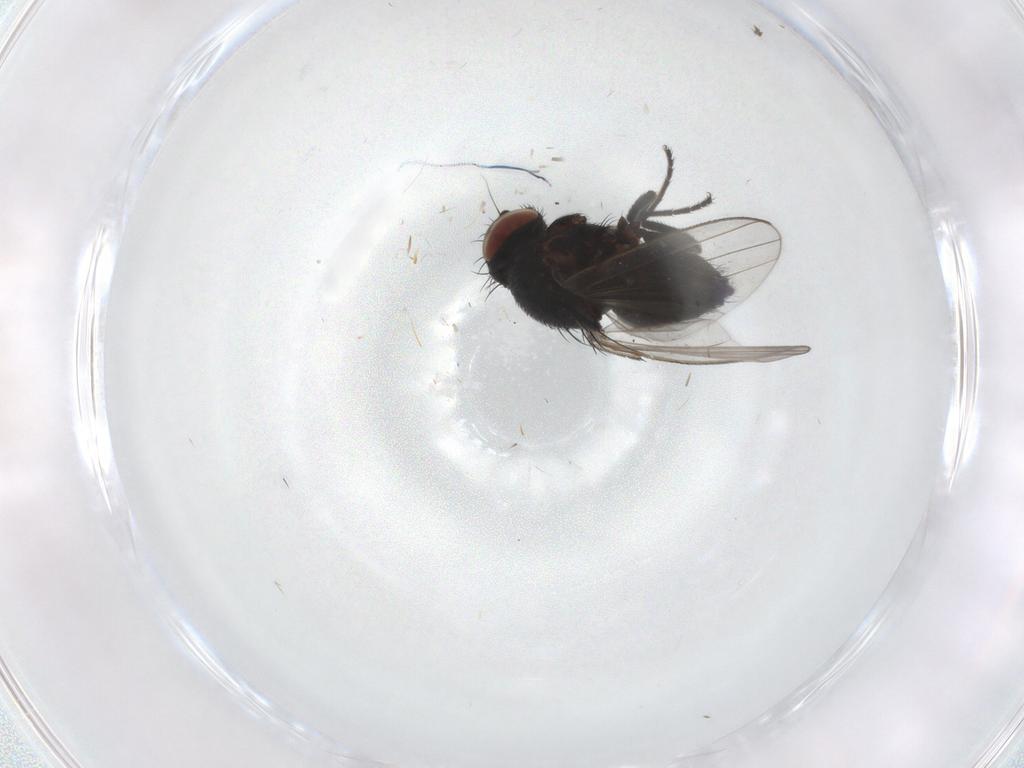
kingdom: Animalia
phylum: Arthropoda
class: Insecta
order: Diptera
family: Milichiidae
